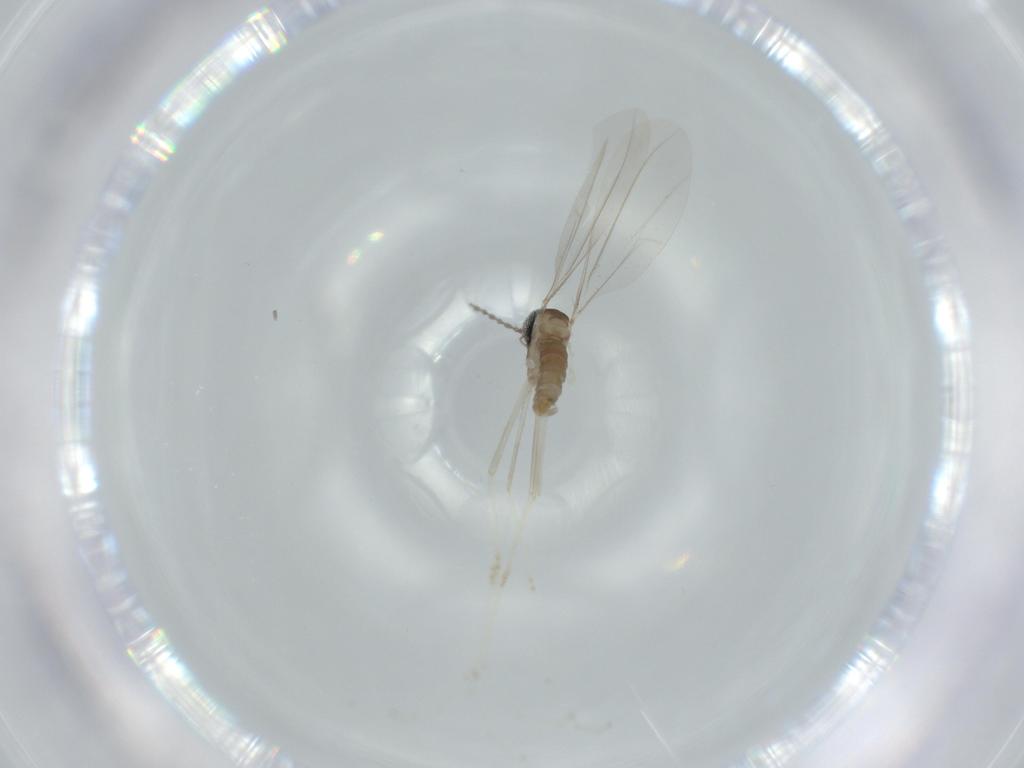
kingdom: Animalia
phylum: Arthropoda
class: Insecta
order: Diptera
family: Cecidomyiidae
